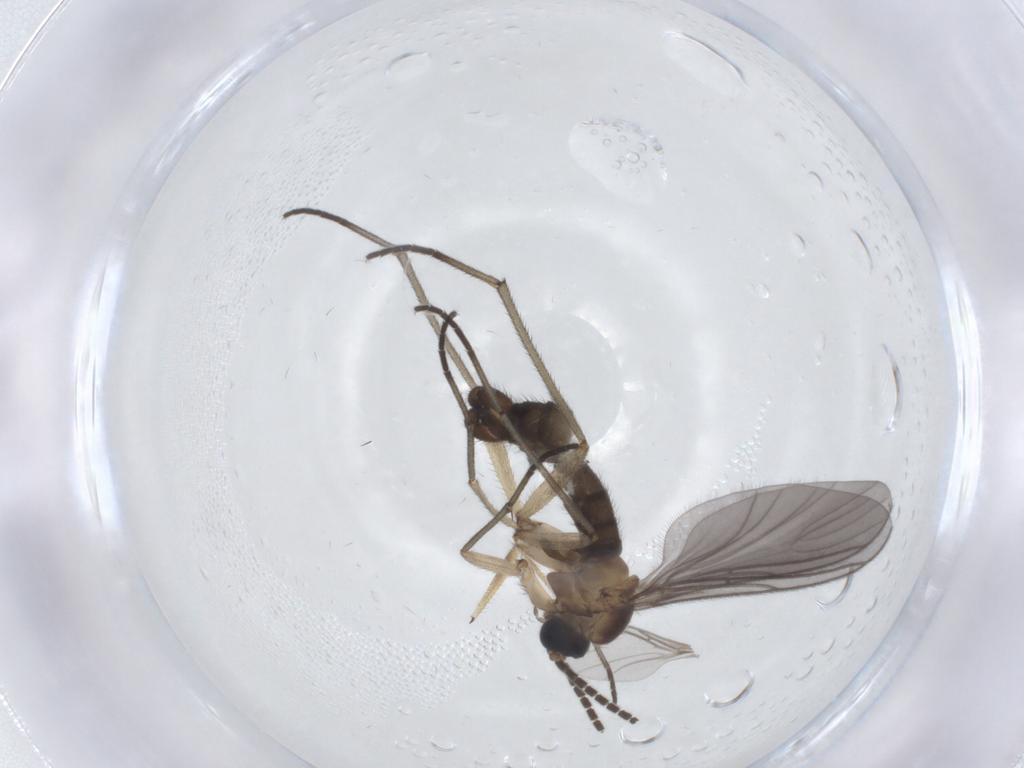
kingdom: Animalia
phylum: Arthropoda
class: Insecta
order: Diptera
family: Sciaridae
